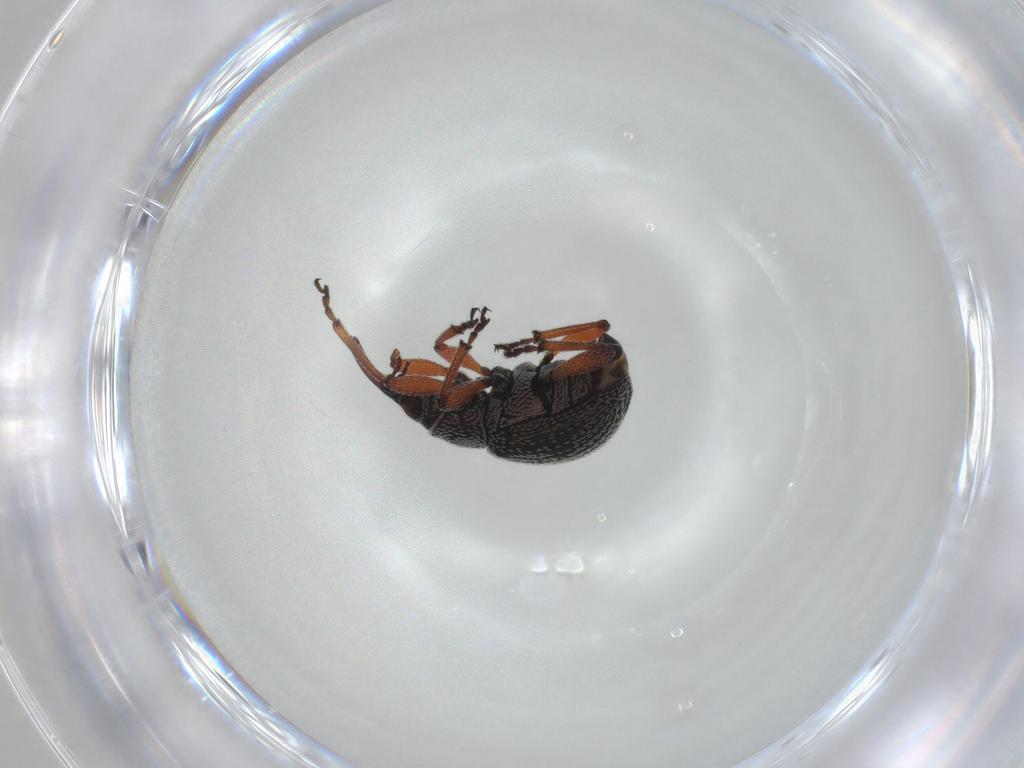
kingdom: Animalia
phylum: Arthropoda
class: Insecta
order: Coleoptera
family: Brentidae
